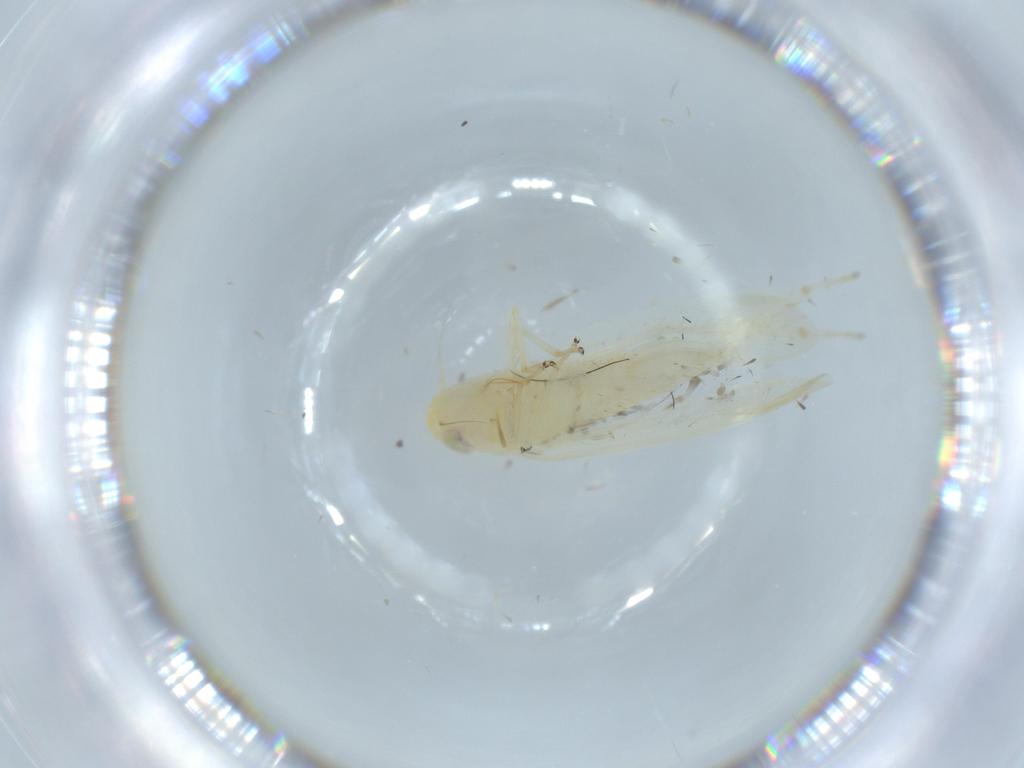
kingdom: Animalia
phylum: Arthropoda
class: Insecta
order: Hemiptera
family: Cicadellidae
